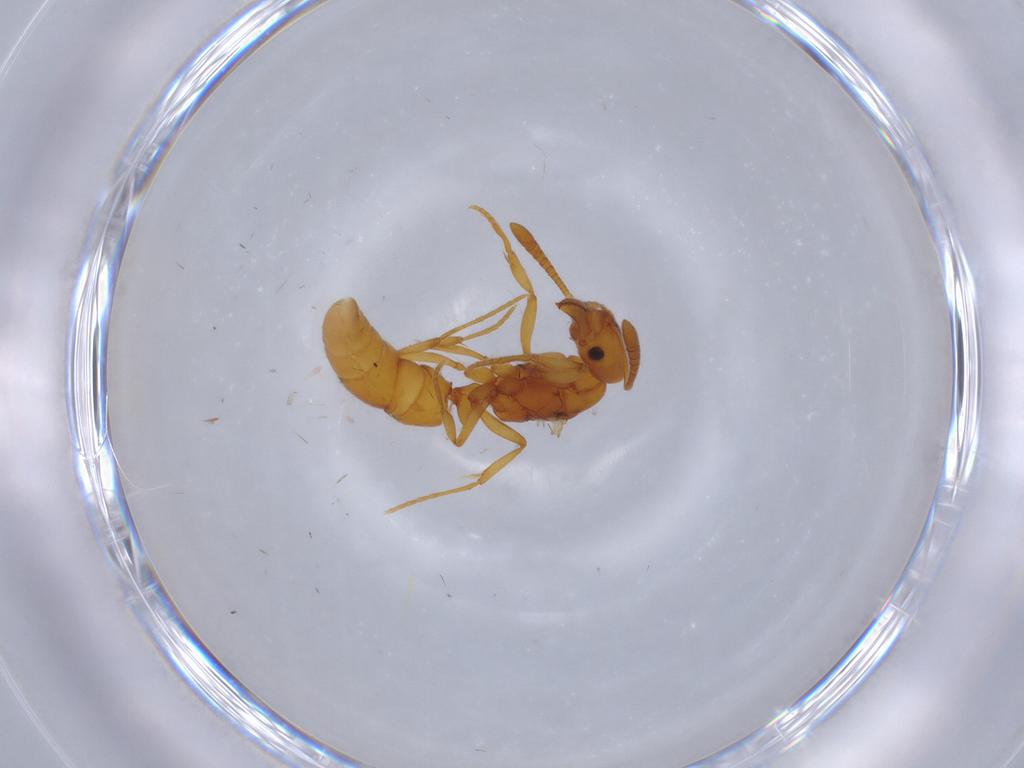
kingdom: Animalia
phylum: Arthropoda
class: Insecta
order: Hymenoptera
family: Formicidae
